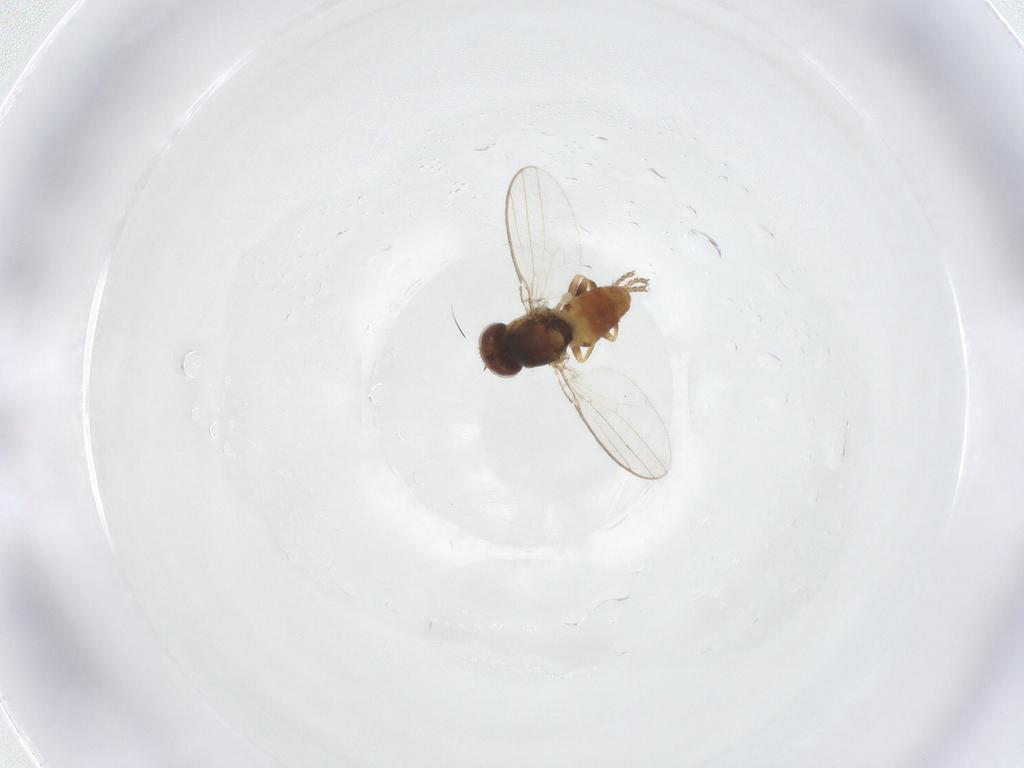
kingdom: Animalia
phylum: Arthropoda
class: Insecta
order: Diptera
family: Chloropidae
